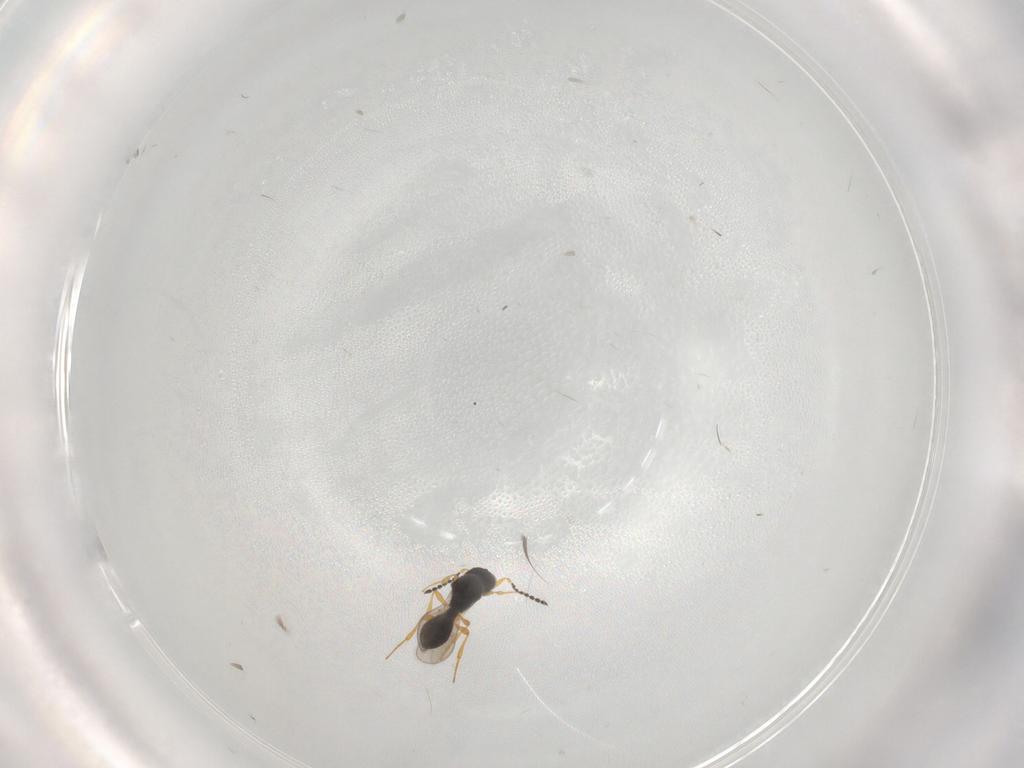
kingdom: Animalia
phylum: Arthropoda
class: Insecta
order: Hymenoptera
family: Platygastridae
